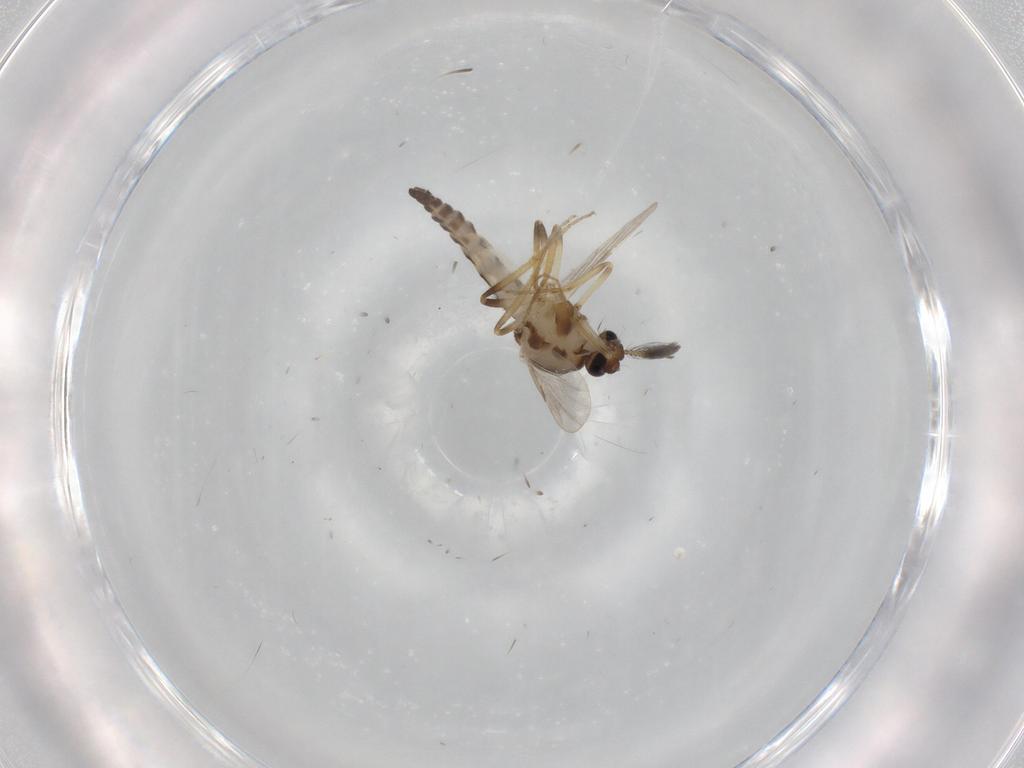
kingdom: Animalia
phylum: Arthropoda
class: Insecta
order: Diptera
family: Ceratopogonidae
